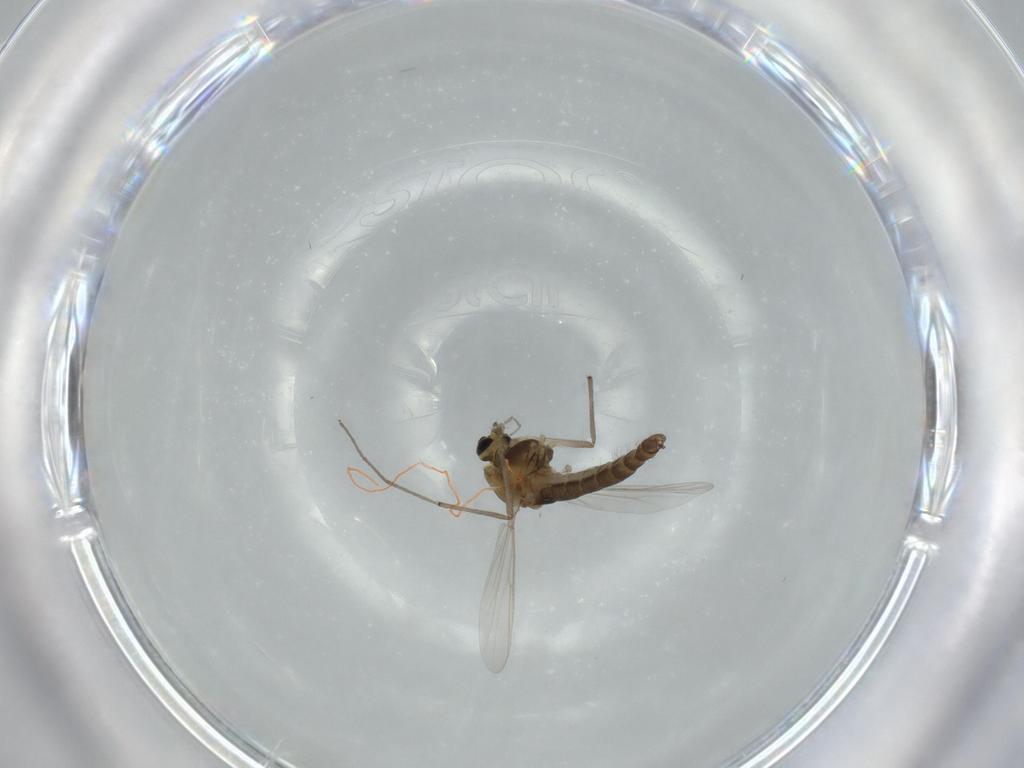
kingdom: Animalia
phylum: Arthropoda
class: Insecta
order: Diptera
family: Chironomidae
